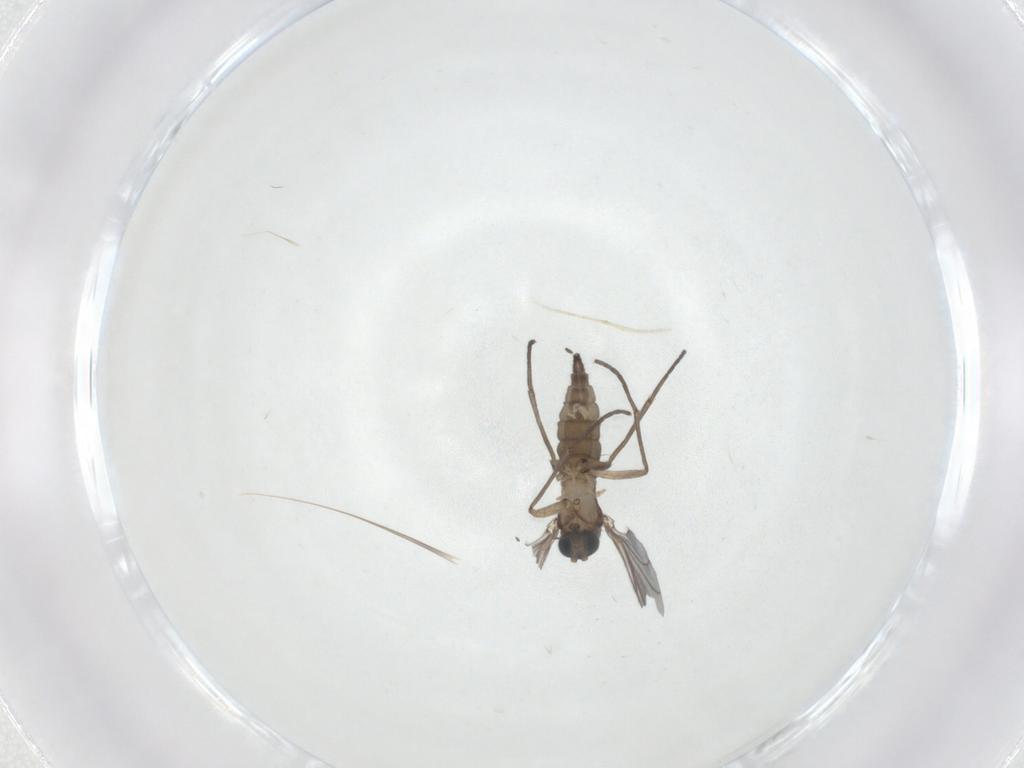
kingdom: Animalia
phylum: Arthropoda
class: Insecta
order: Diptera
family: Sciaridae
